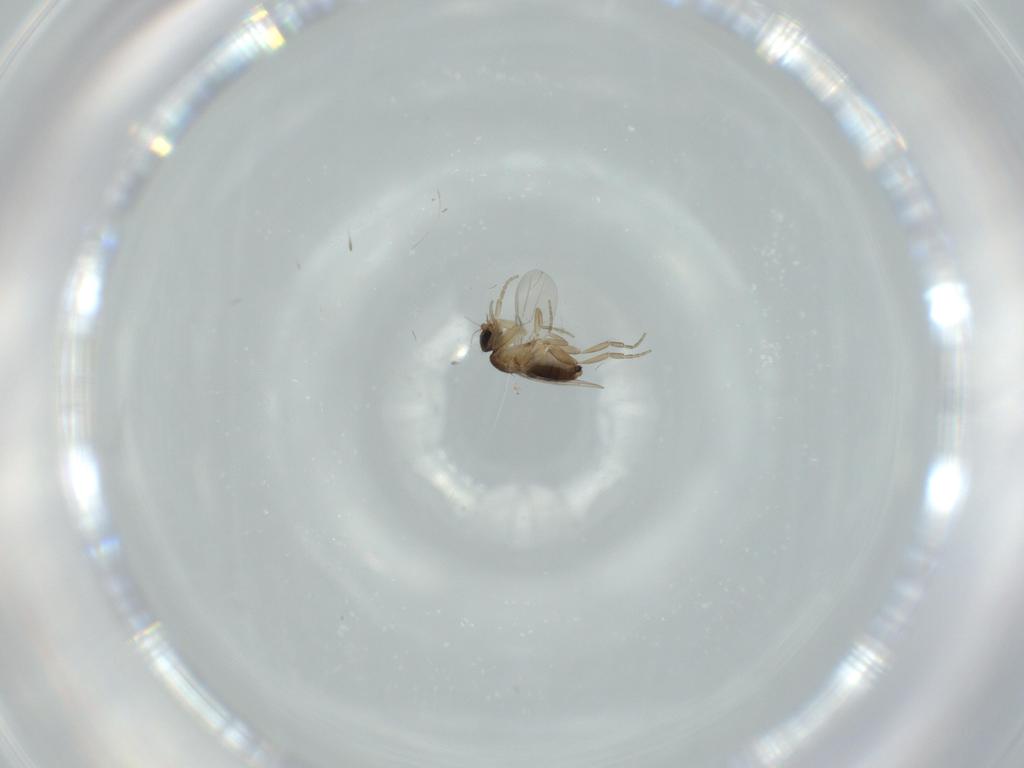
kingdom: Animalia
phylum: Arthropoda
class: Insecta
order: Diptera
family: Phoridae
